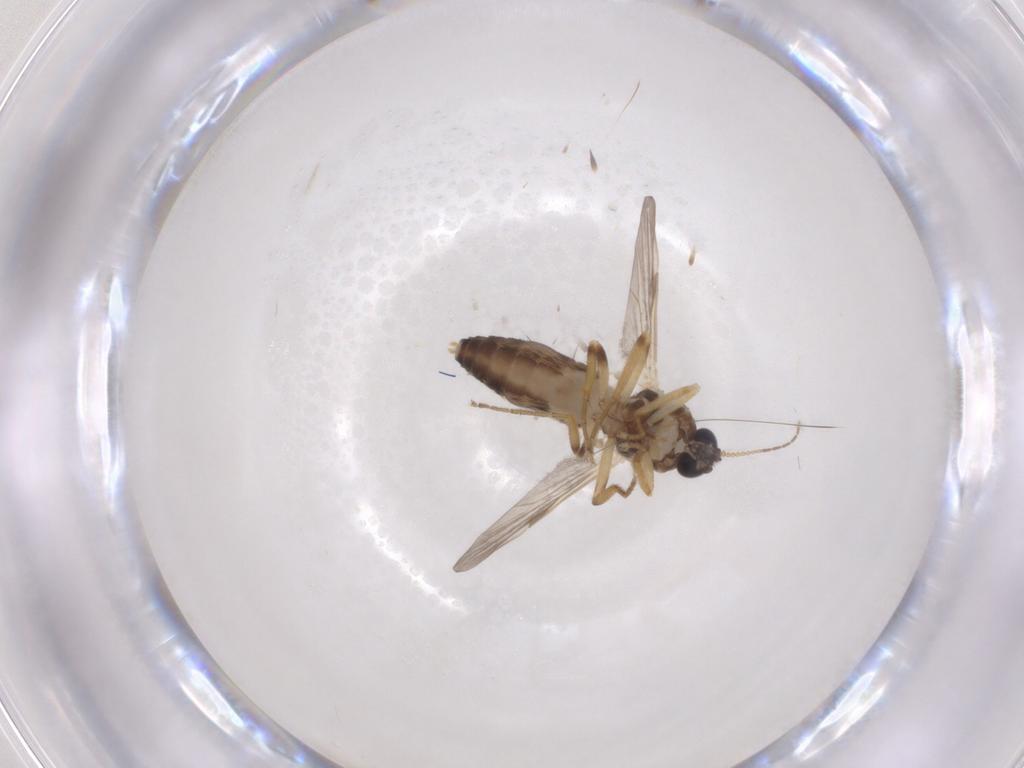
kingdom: Animalia
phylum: Arthropoda
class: Insecta
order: Diptera
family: Ceratopogonidae
